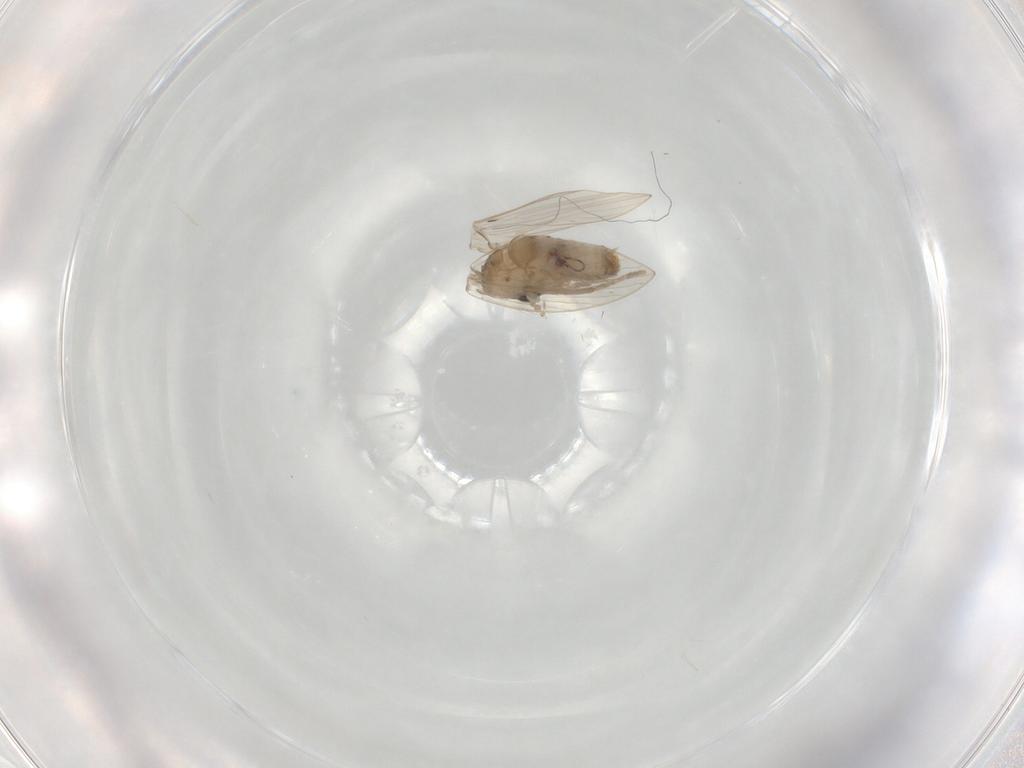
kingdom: Animalia
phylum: Arthropoda
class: Insecta
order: Diptera
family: Psychodidae
